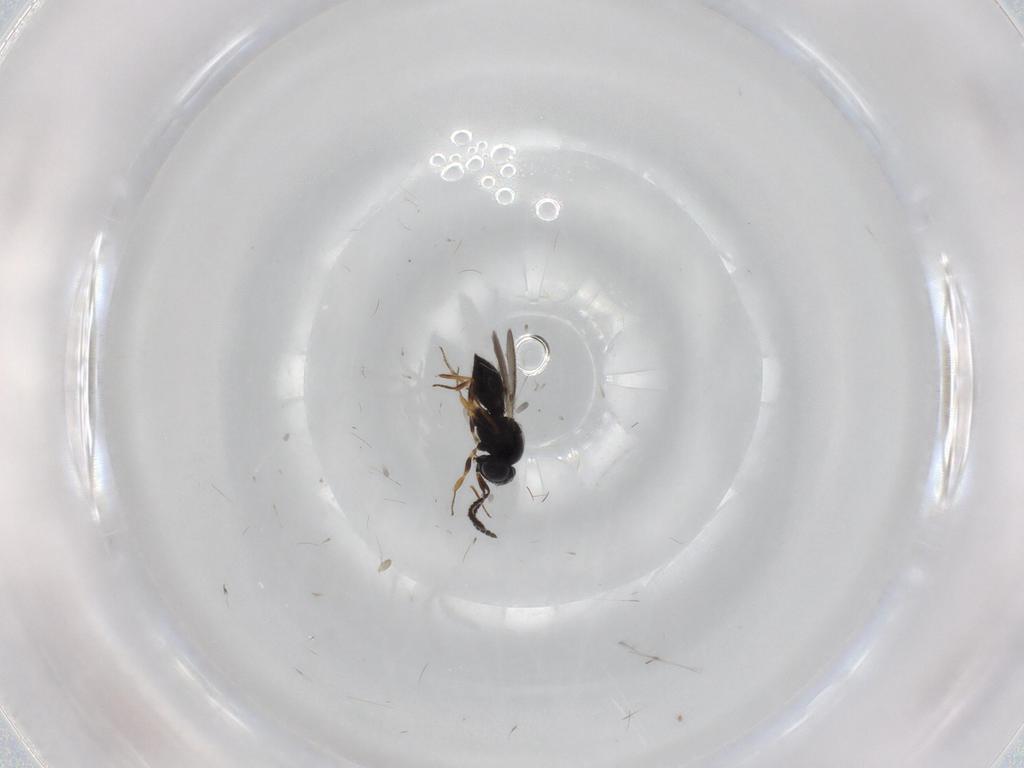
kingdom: Animalia
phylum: Arthropoda
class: Insecta
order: Hymenoptera
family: Scelionidae
